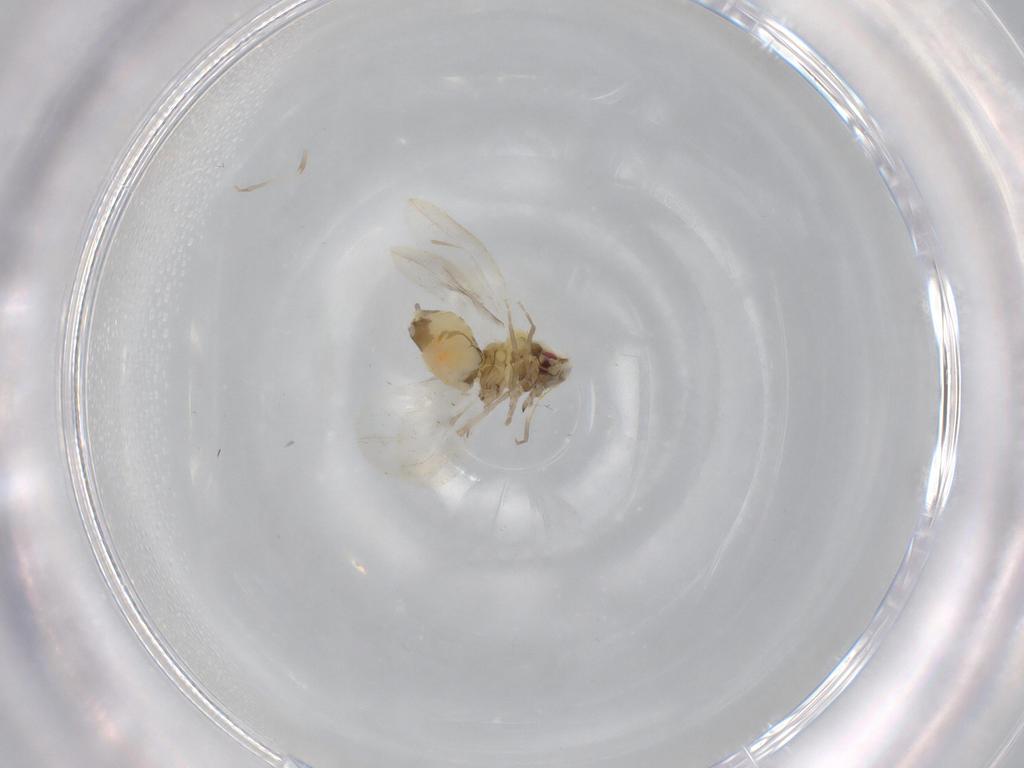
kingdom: Animalia
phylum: Arthropoda
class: Insecta
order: Hemiptera
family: Aleyrodidae
